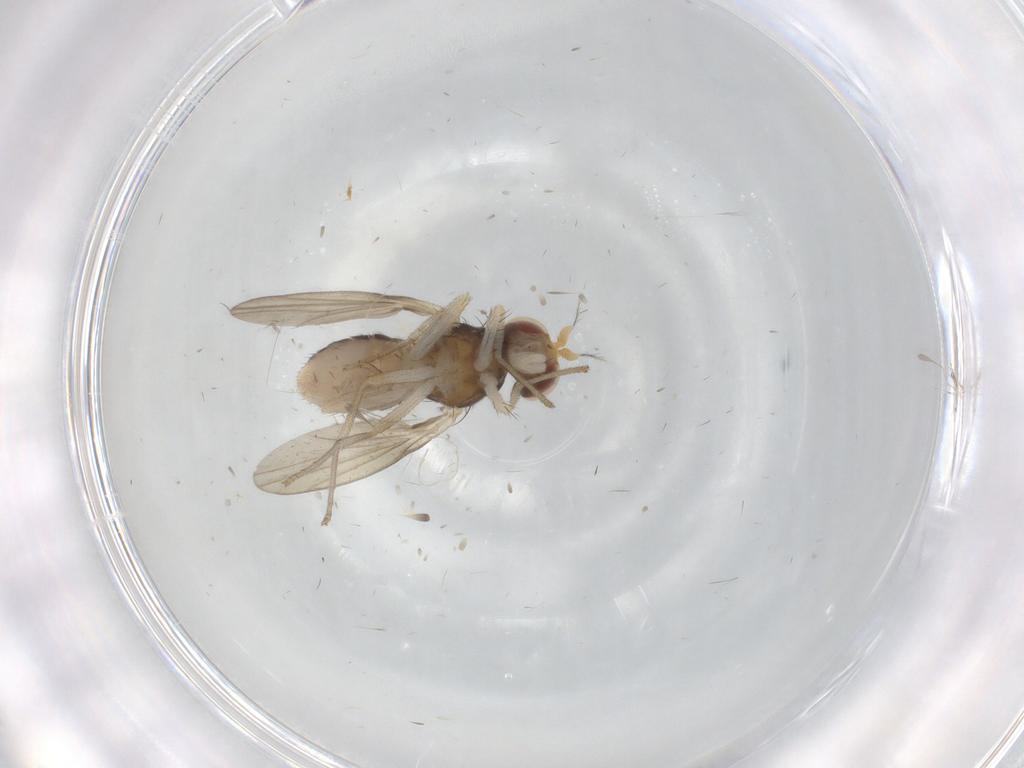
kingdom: Animalia
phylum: Arthropoda
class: Insecta
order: Diptera
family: Lauxaniidae
